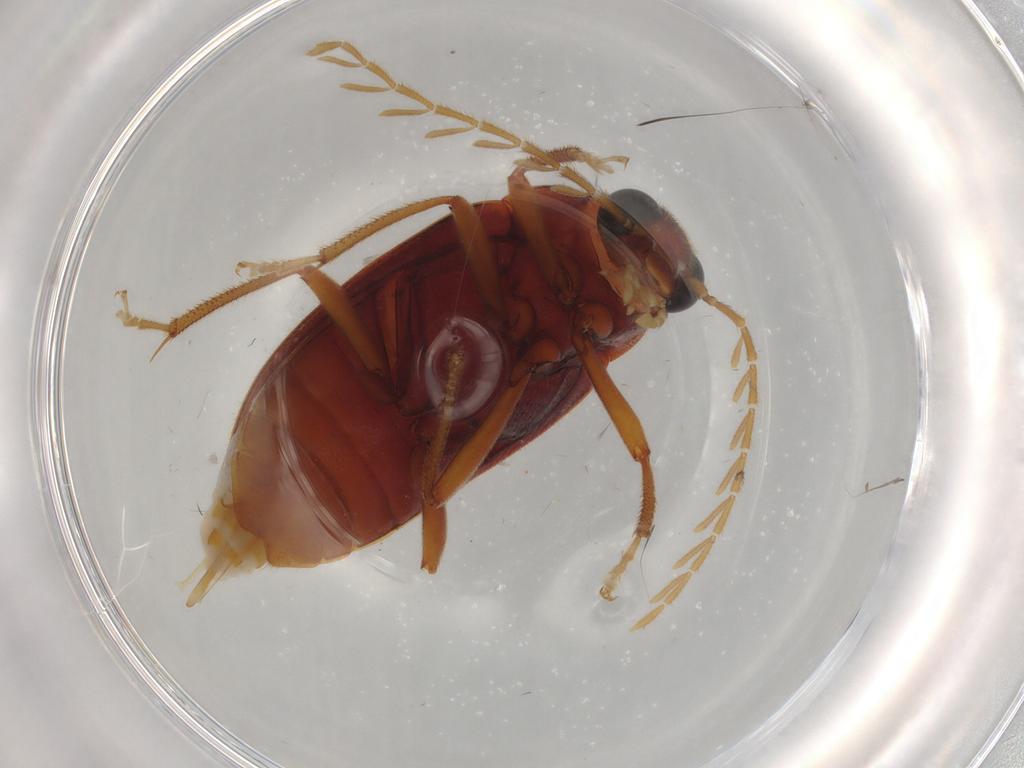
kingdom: Animalia
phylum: Arthropoda
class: Insecta
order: Coleoptera
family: Ptilodactylidae
